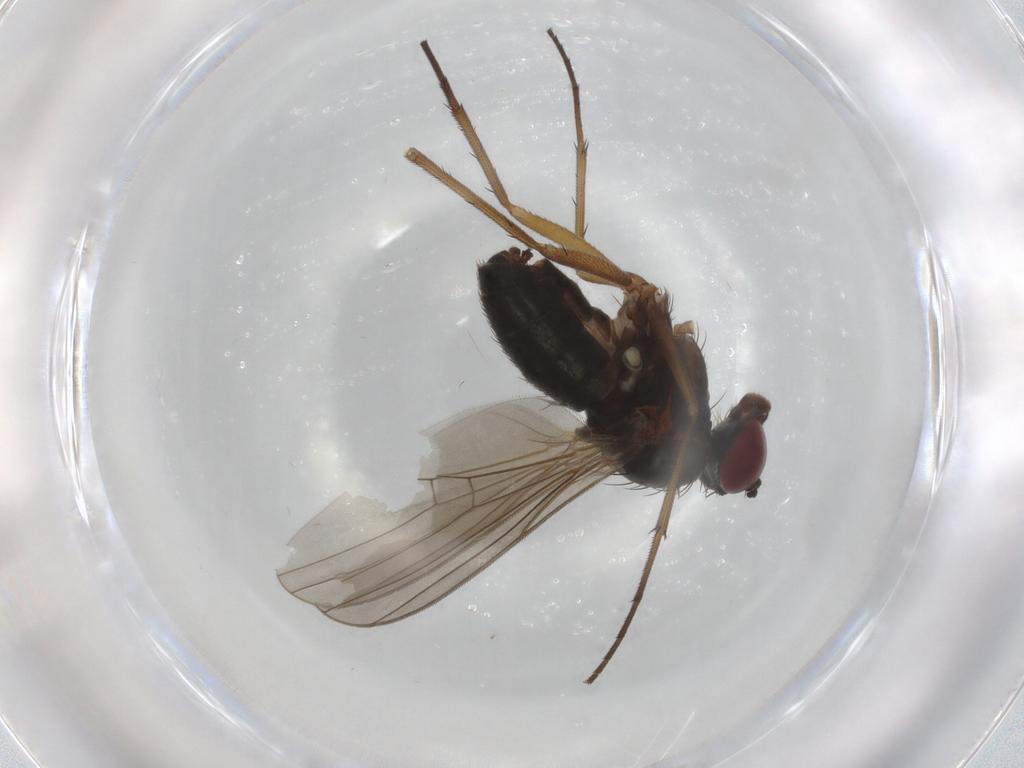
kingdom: Animalia
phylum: Arthropoda
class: Insecta
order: Diptera
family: Dolichopodidae
